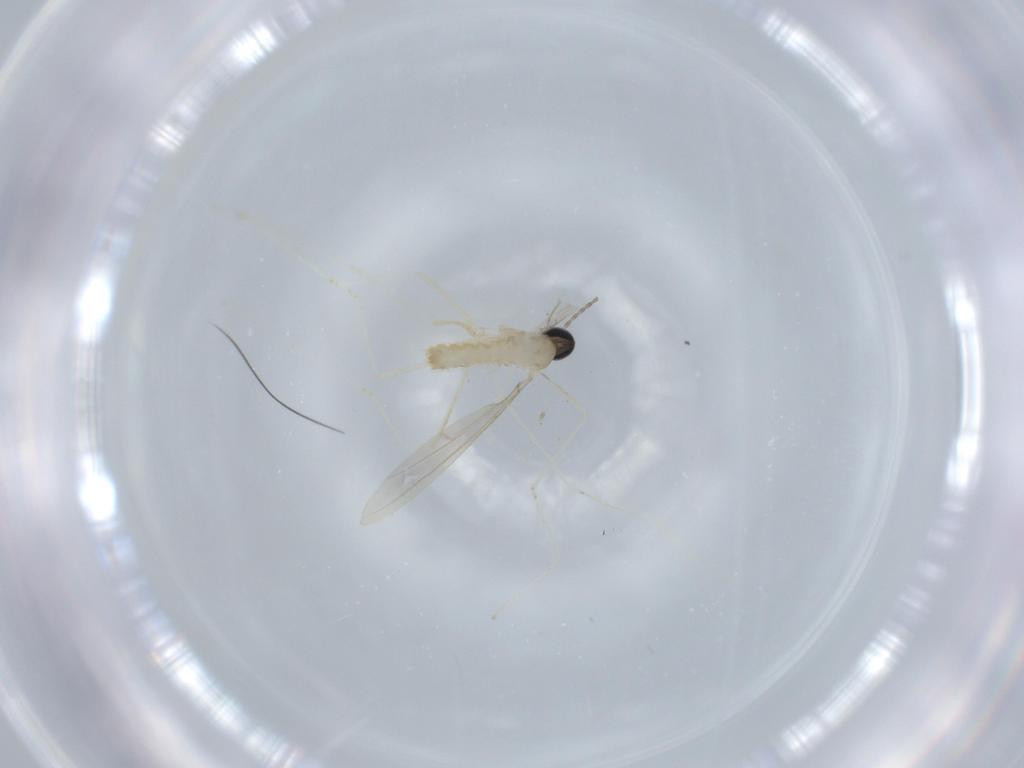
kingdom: Animalia
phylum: Arthropoda
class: Insecta
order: Diptera
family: Cecidomyiidae
